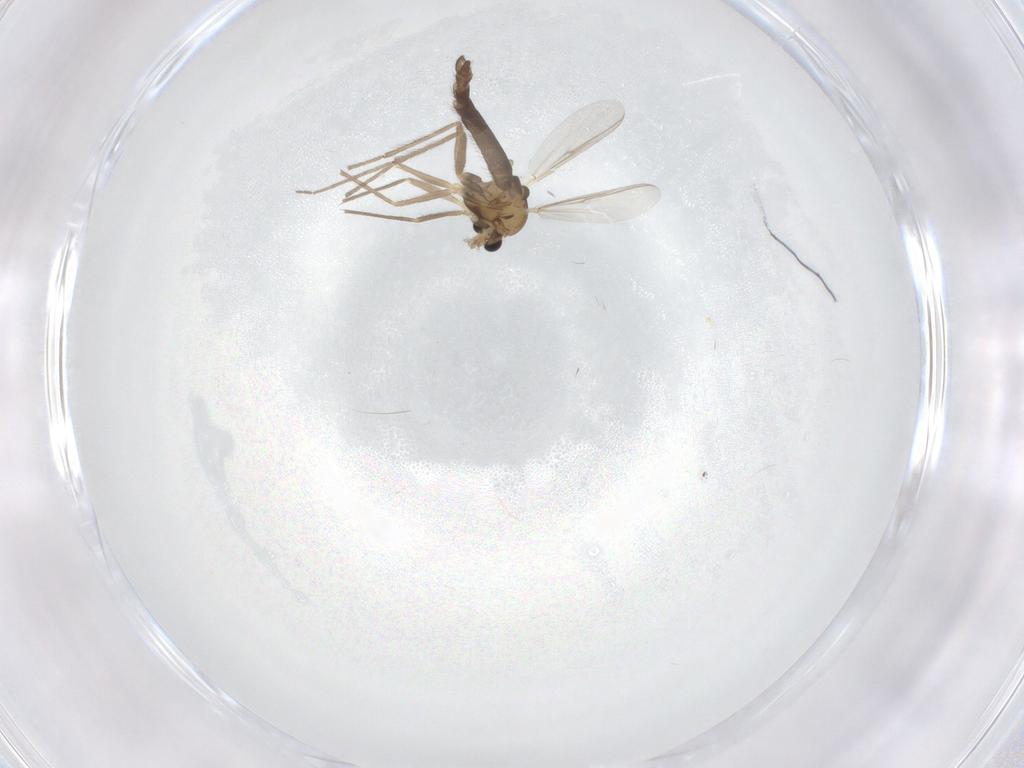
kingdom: Animalia
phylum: Arthropoda
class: Insecta
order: Diptera
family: Chironomidae
